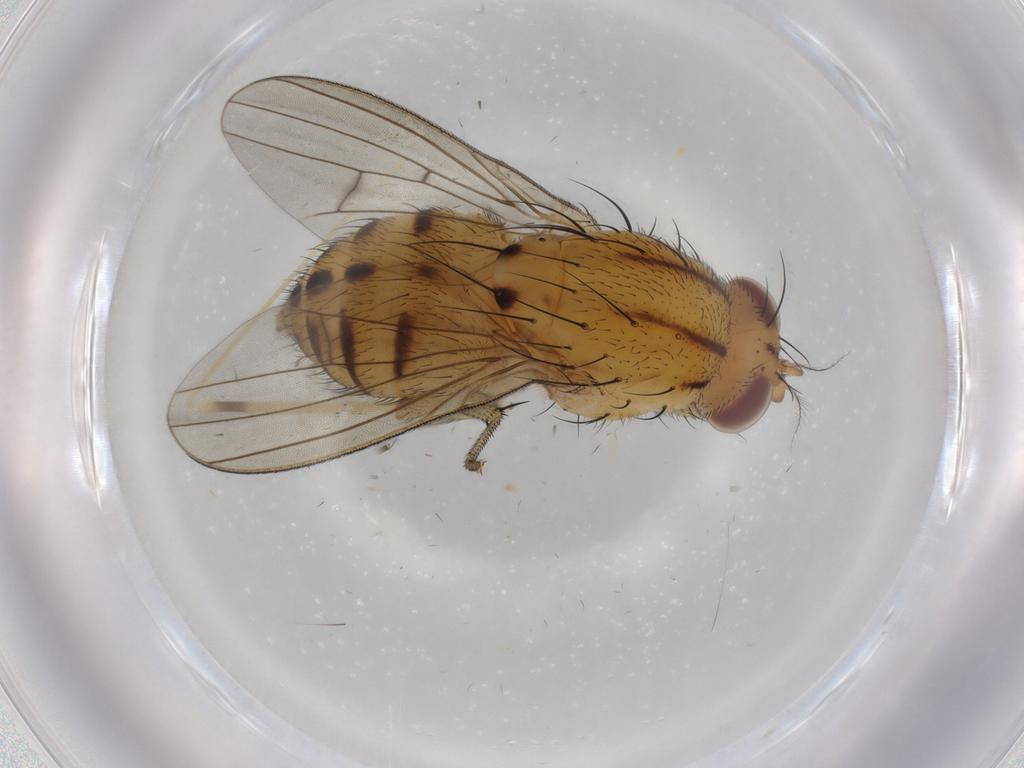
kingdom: Animalia
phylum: Arthropoda
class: Insecta
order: Diptera
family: Lauxaniidae
